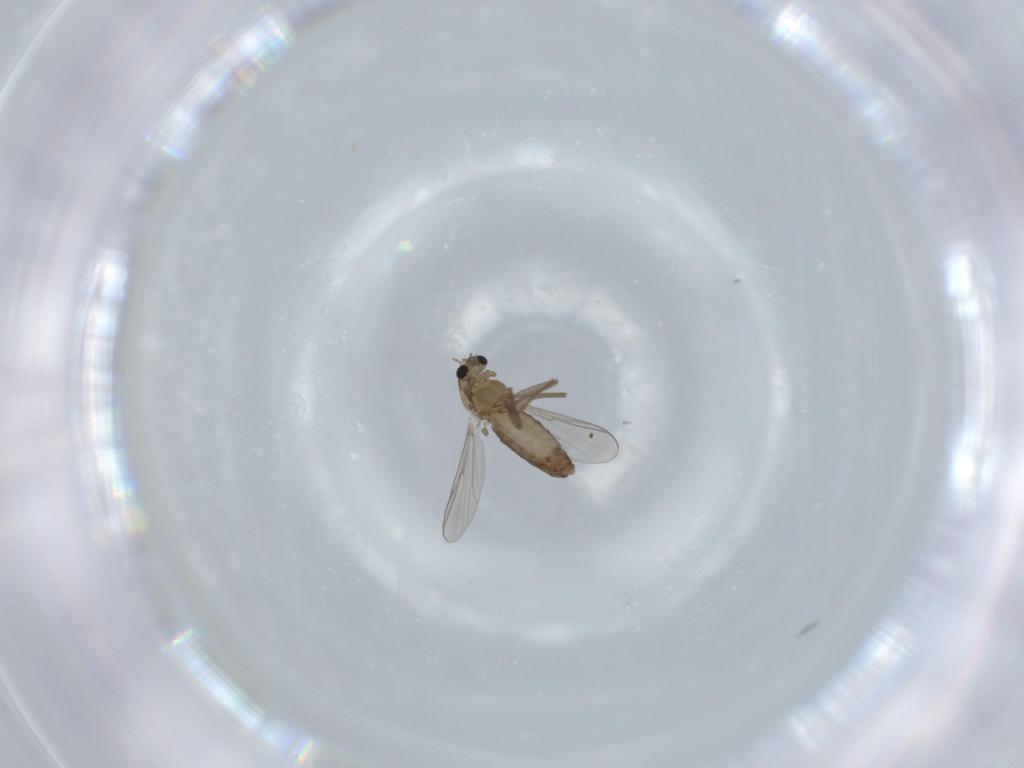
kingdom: Animalia
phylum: Arthropoda
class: Insecta
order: Diptera
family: Chironomidae
